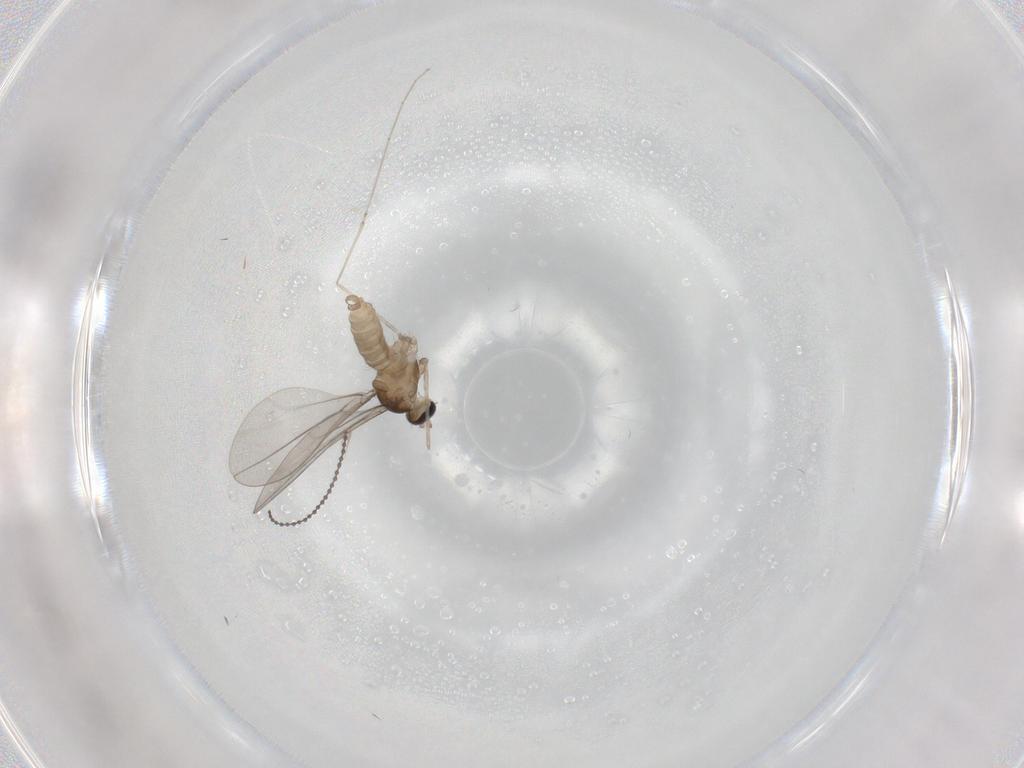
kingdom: Animalia
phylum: Arthropoda
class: Insecta
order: Diptera
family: Cecidomyiidae
